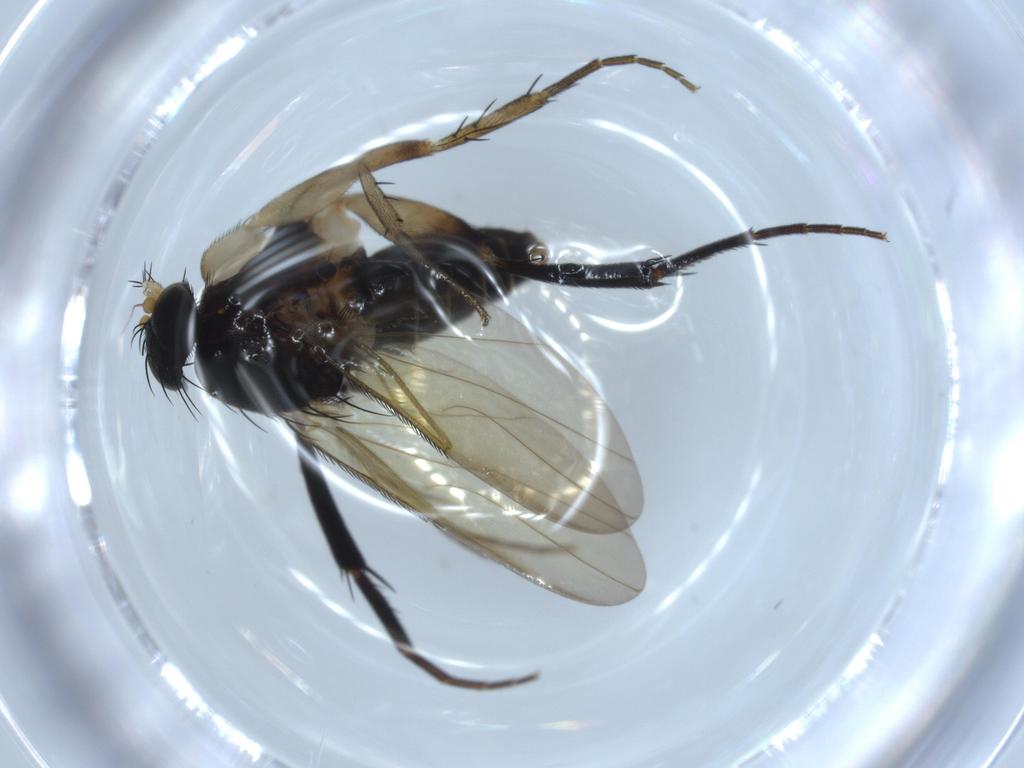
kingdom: Animalia
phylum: Arthropoda
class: Insecta
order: Diptera
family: Phoridae
